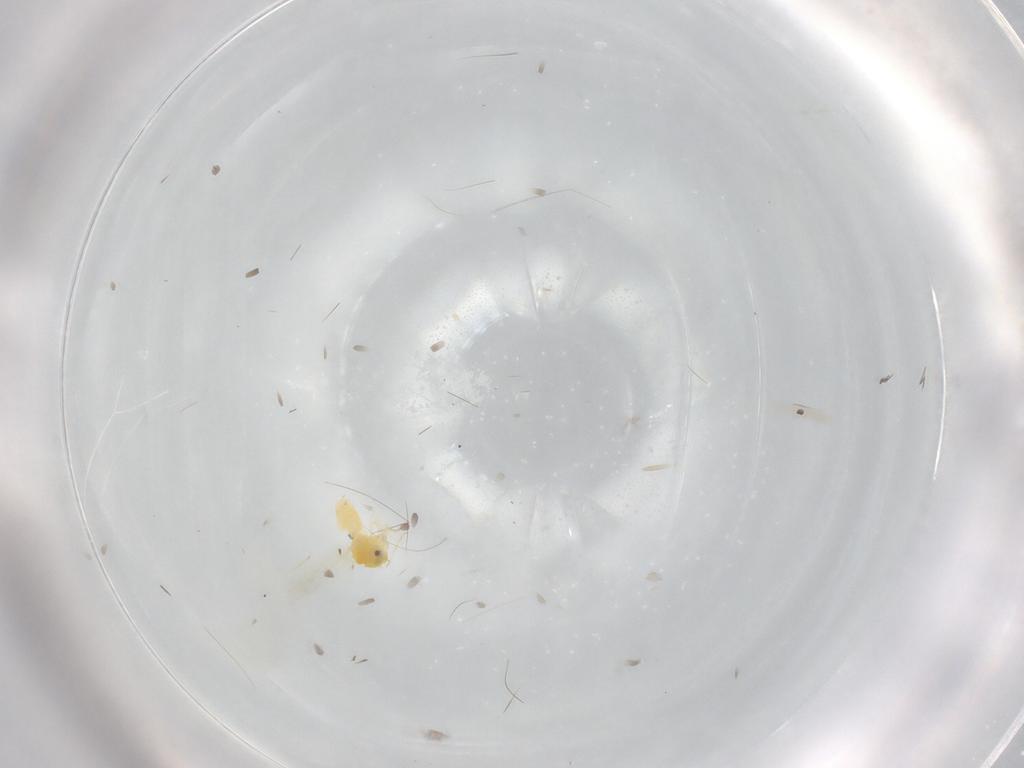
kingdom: Animalia
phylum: Arthropoda
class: Insecta
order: Hemiptera
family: Aleyrodidae
